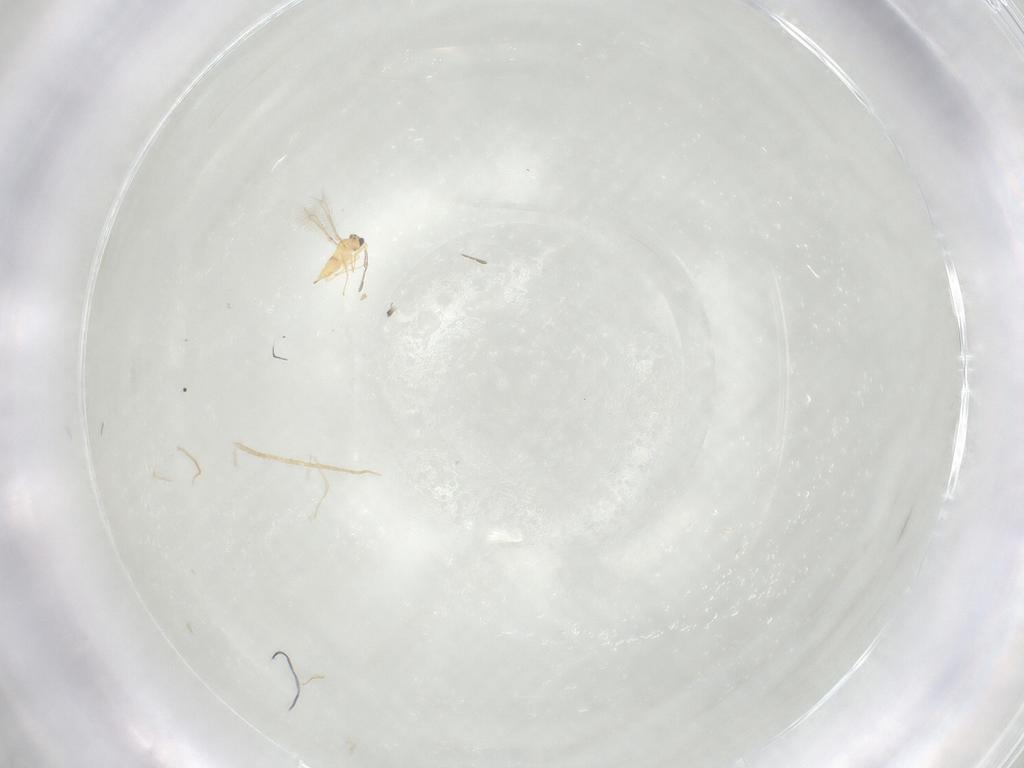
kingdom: Animalia
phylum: Arthropoda
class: Insecta
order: Hymenoptera
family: Mymaridae
